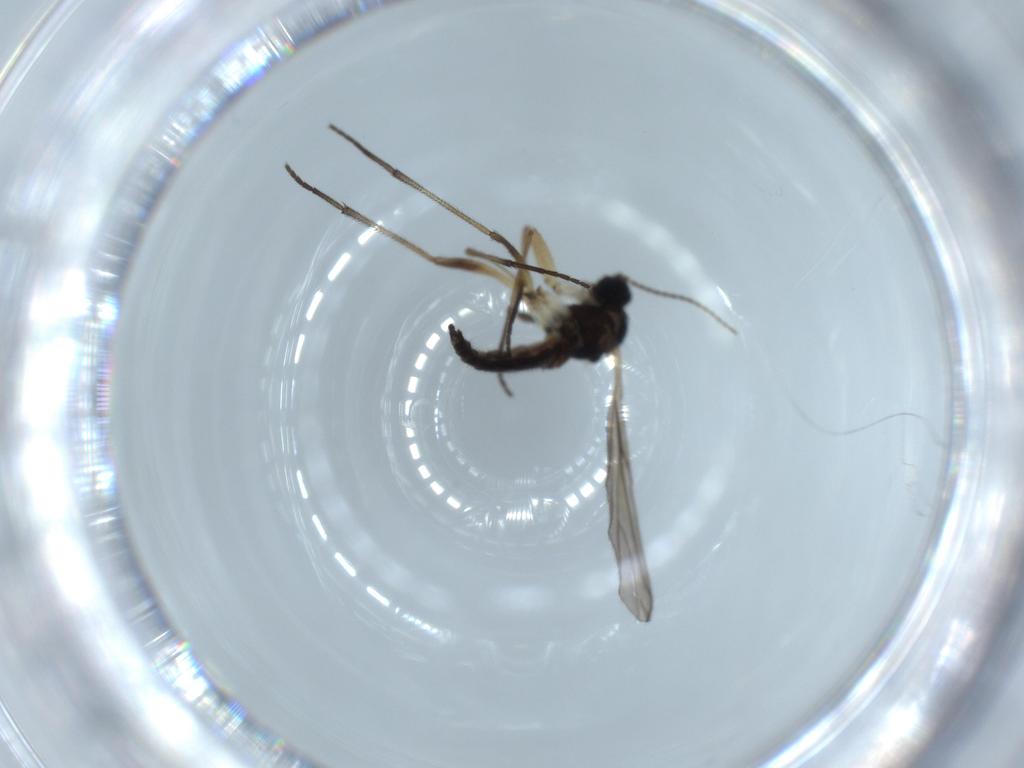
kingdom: Animalia
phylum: Arthropoda
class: Insecta
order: Diptera
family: Sciaridae
